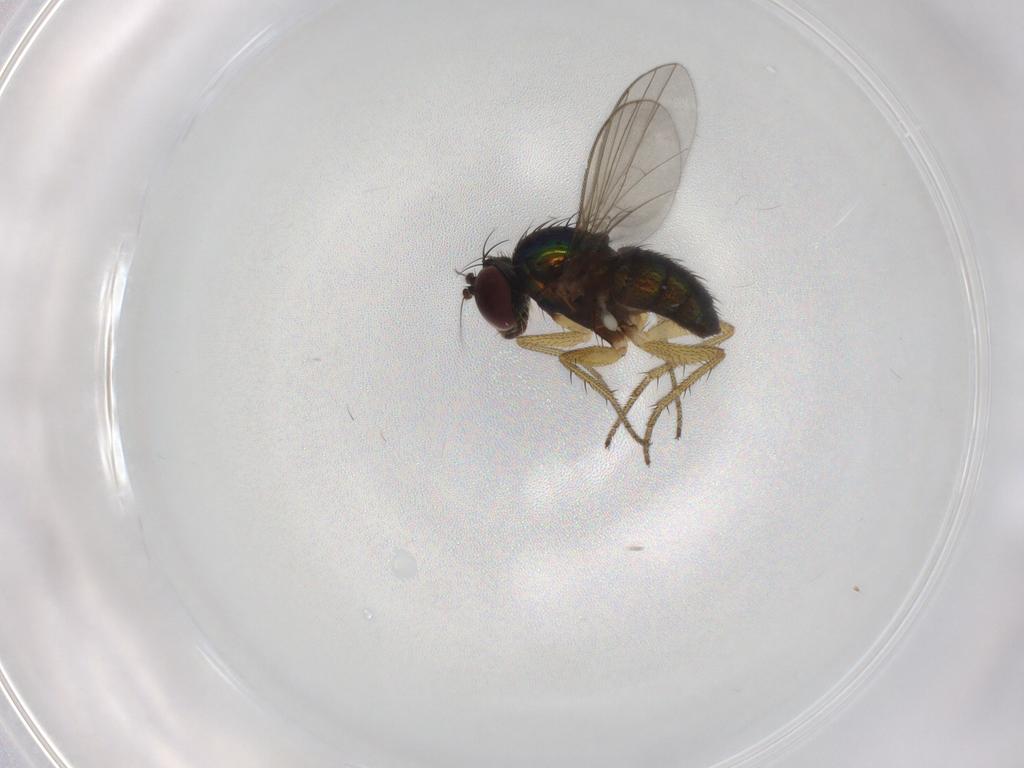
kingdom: Animalia
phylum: Arthropoda
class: Insecta
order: Diptera
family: Dolichopodidae
